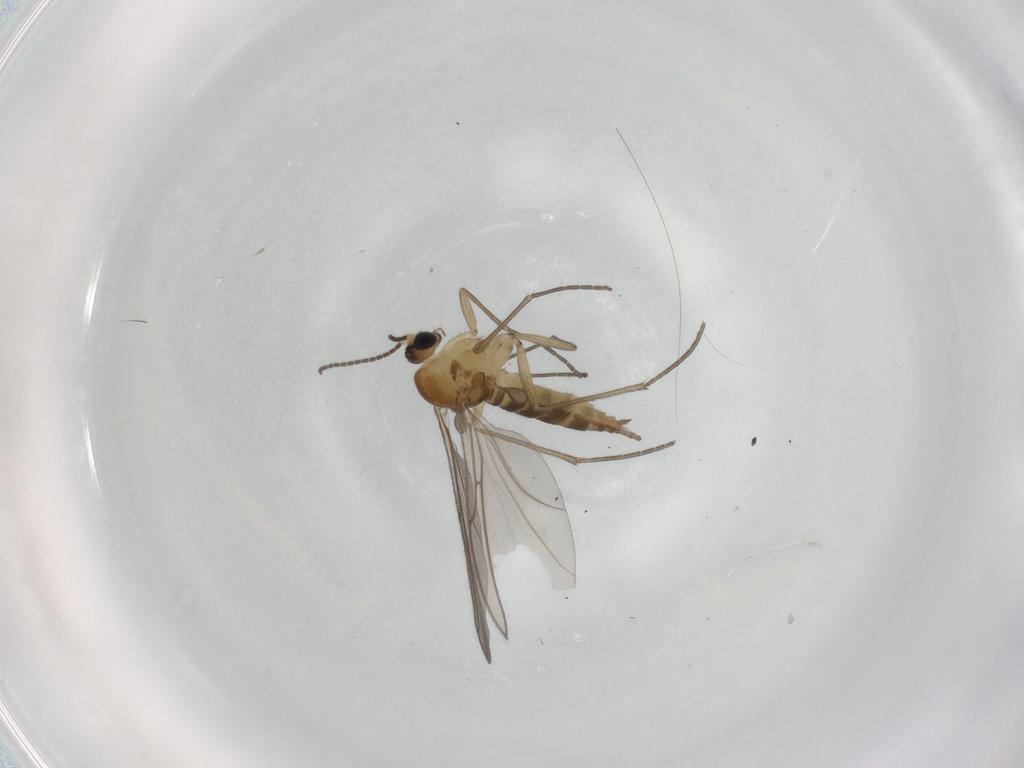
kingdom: Animalia
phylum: Arthropoda
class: Insecta
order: Diptera
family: Sciaridae
